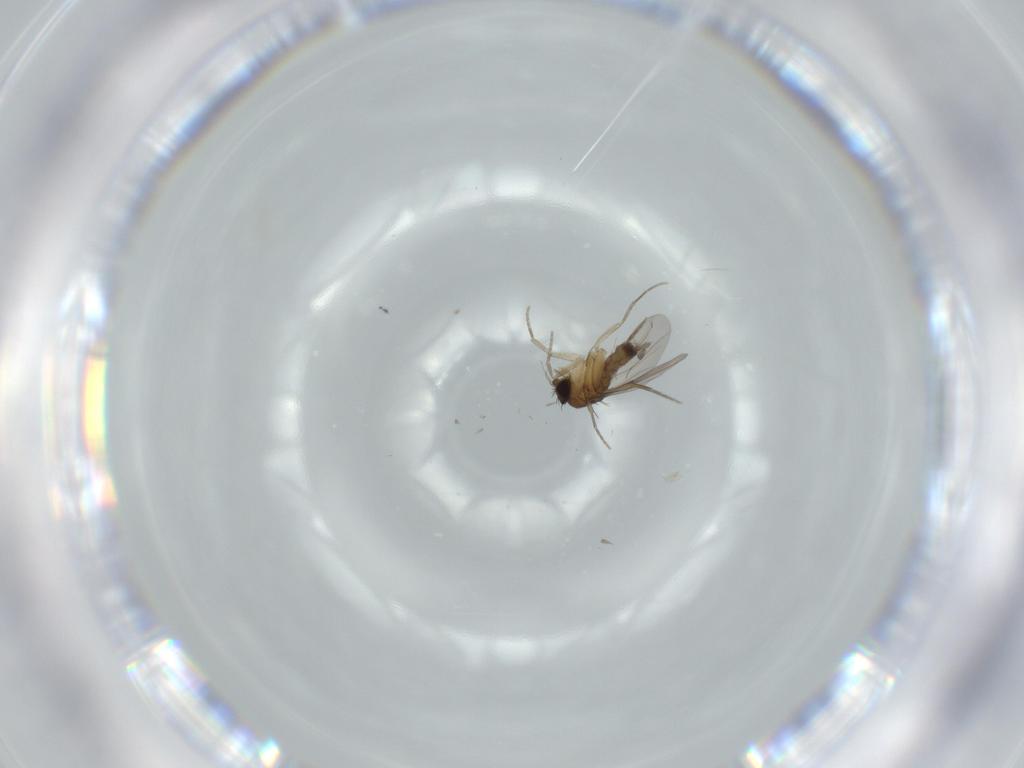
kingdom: Animalia
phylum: Arthropoda
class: Insecta
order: Diptera
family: Phoridae
